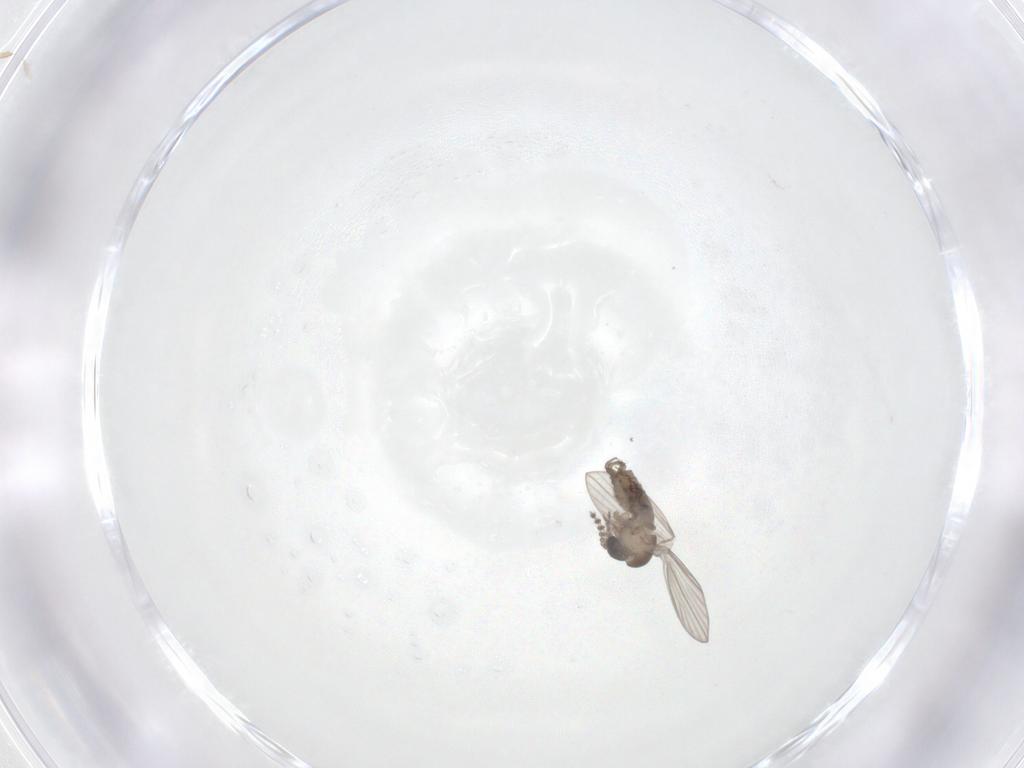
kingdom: Animalia
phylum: Arthropoda
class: Insecta
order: Diptera
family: Psychodidae
